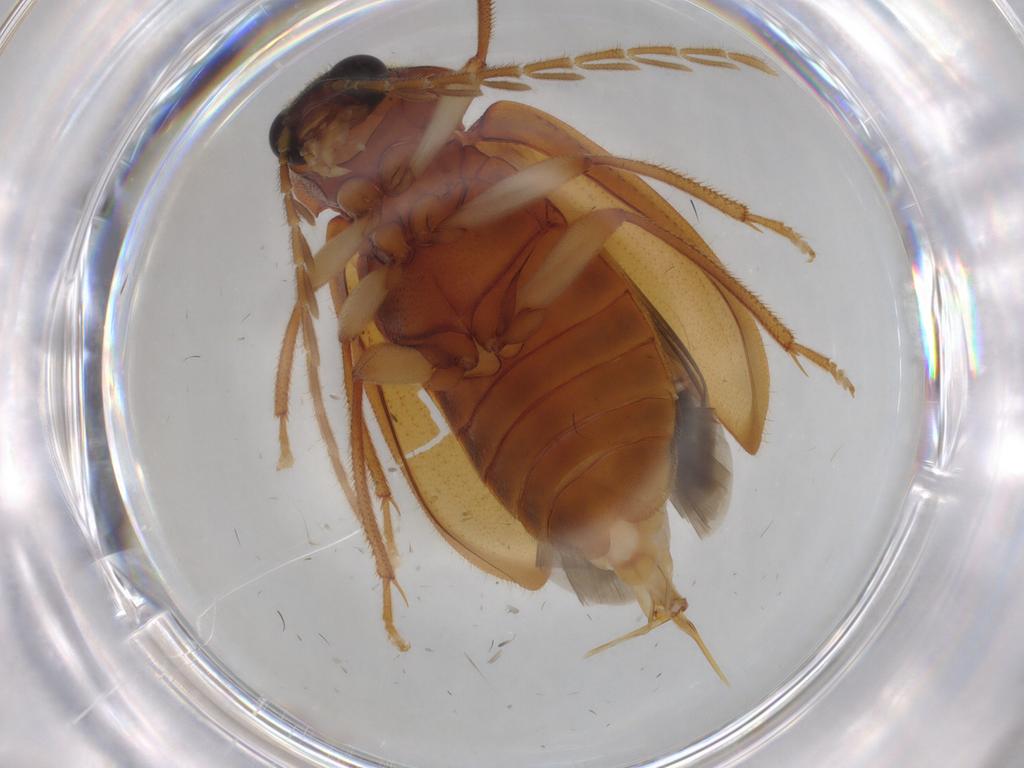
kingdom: Animalia
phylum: Arthropoda
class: Insecta
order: Coleoptera
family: Ptilodactylidae
